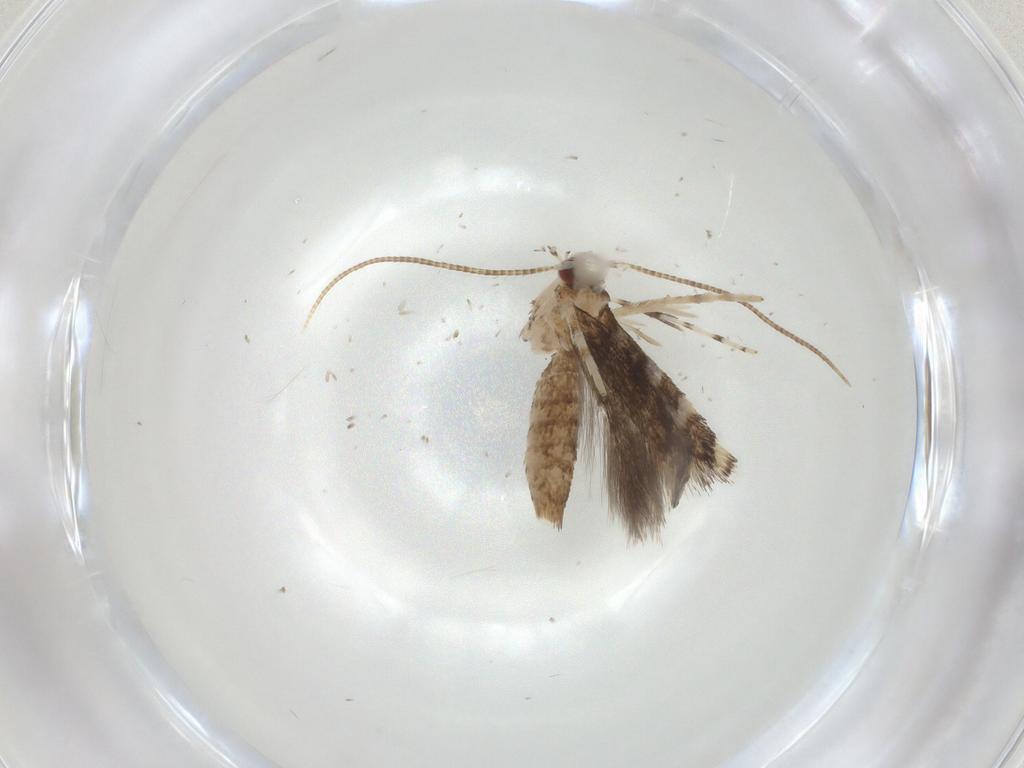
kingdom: Animalia
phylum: Arthropoda
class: Insecta
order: Lepidoptera
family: Gracillariidae
